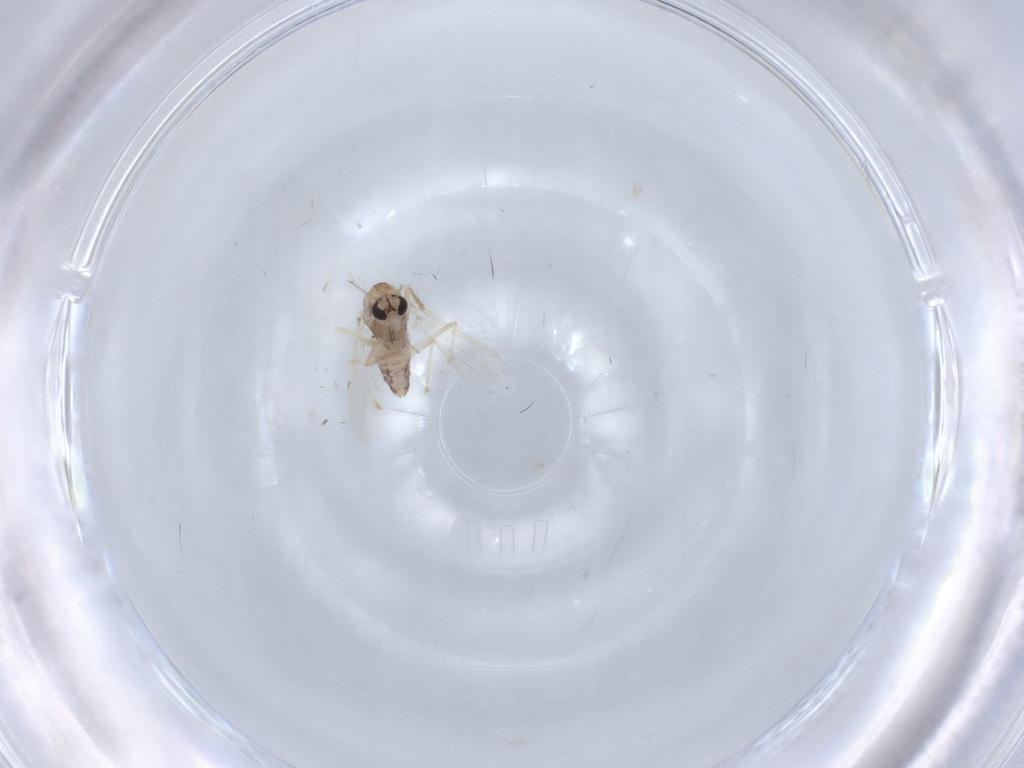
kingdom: Animalia
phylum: Arthropoda
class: Insecta
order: Diptera
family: Chironomidae
